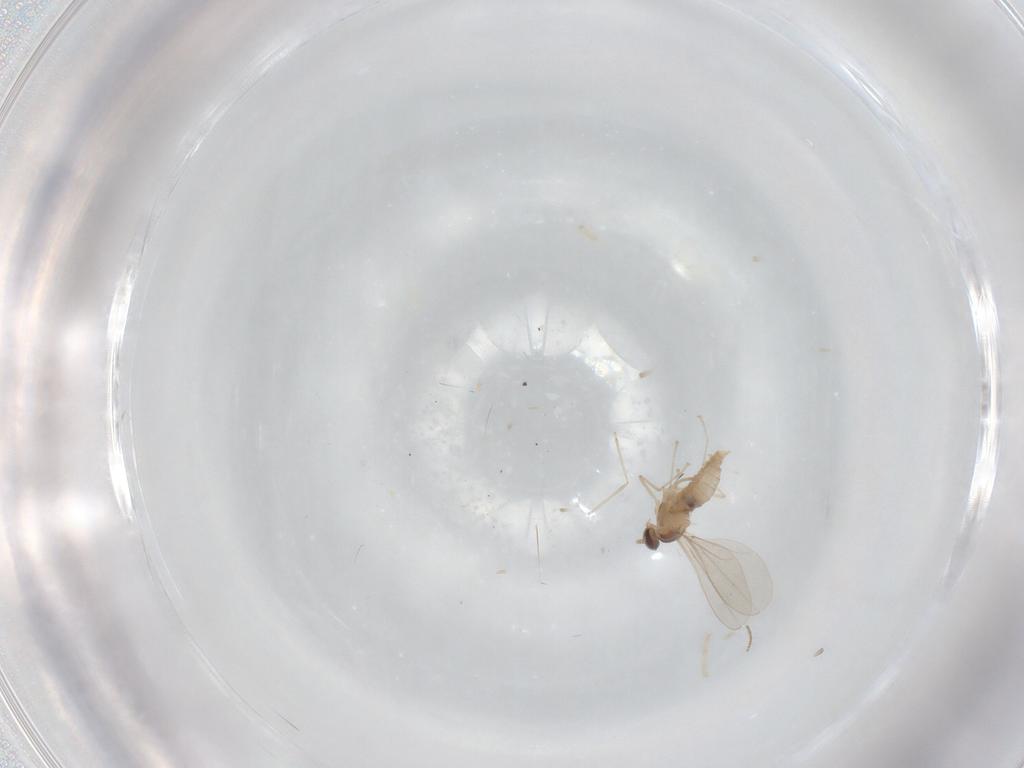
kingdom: Animalia
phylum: Arthropoda
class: Insecta
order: Diptera
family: Cecidomyiidae
